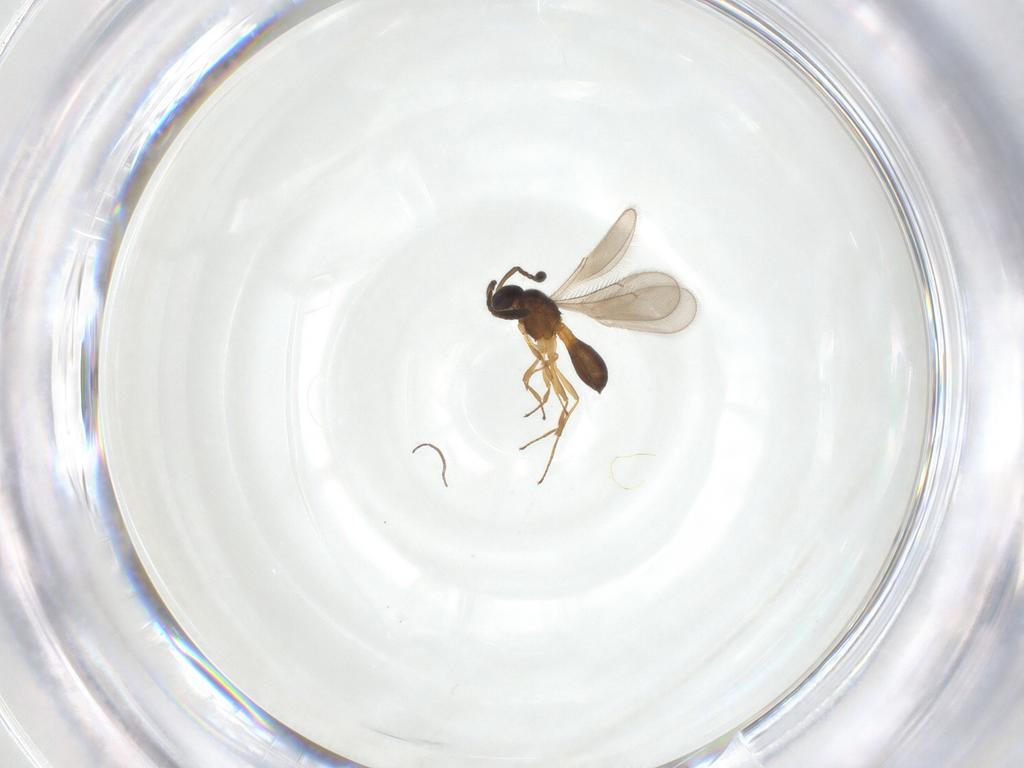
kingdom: Animalia
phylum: Arthropoda
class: Insecta
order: Hymenoptera
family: Scelionidae
